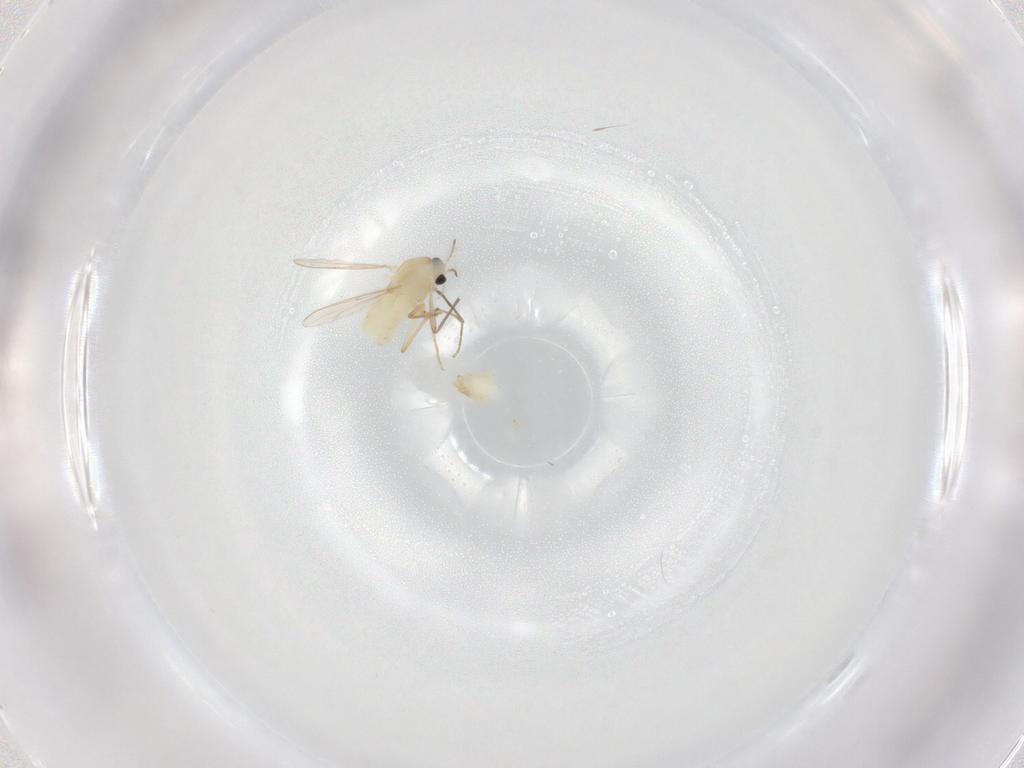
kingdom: Animalia
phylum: Arthropoda
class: Insecta
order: Diptera
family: Chironomidae
